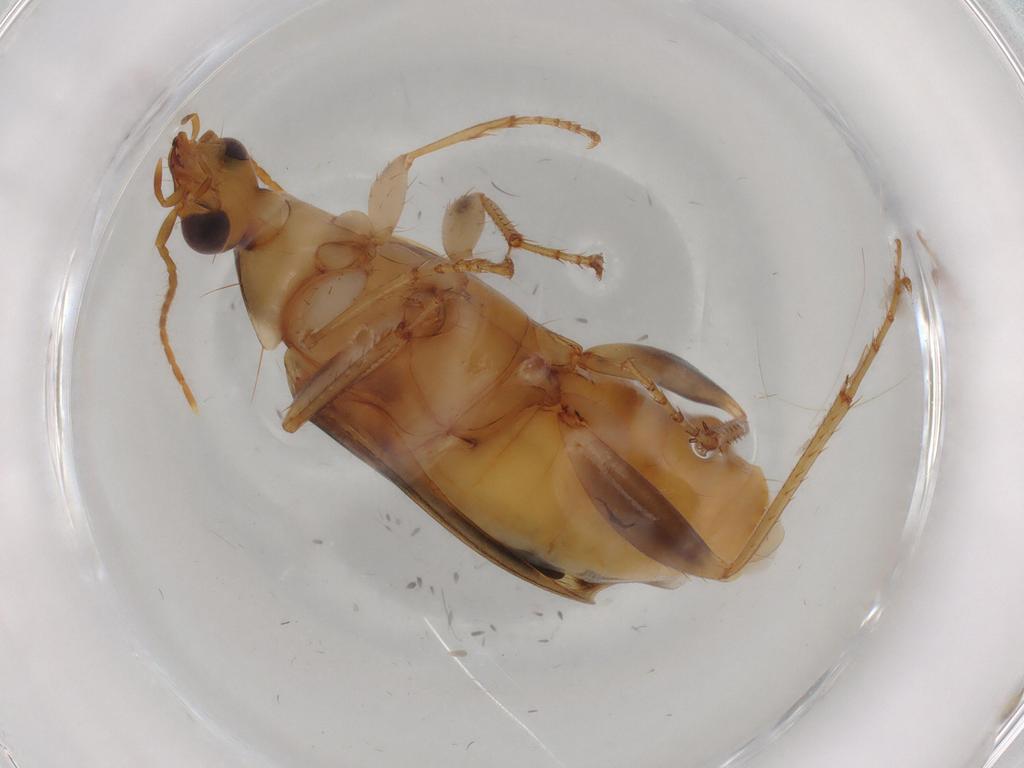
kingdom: Animalia
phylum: Arthropoda
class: Insecta
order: Coleoptera
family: Carabidae
